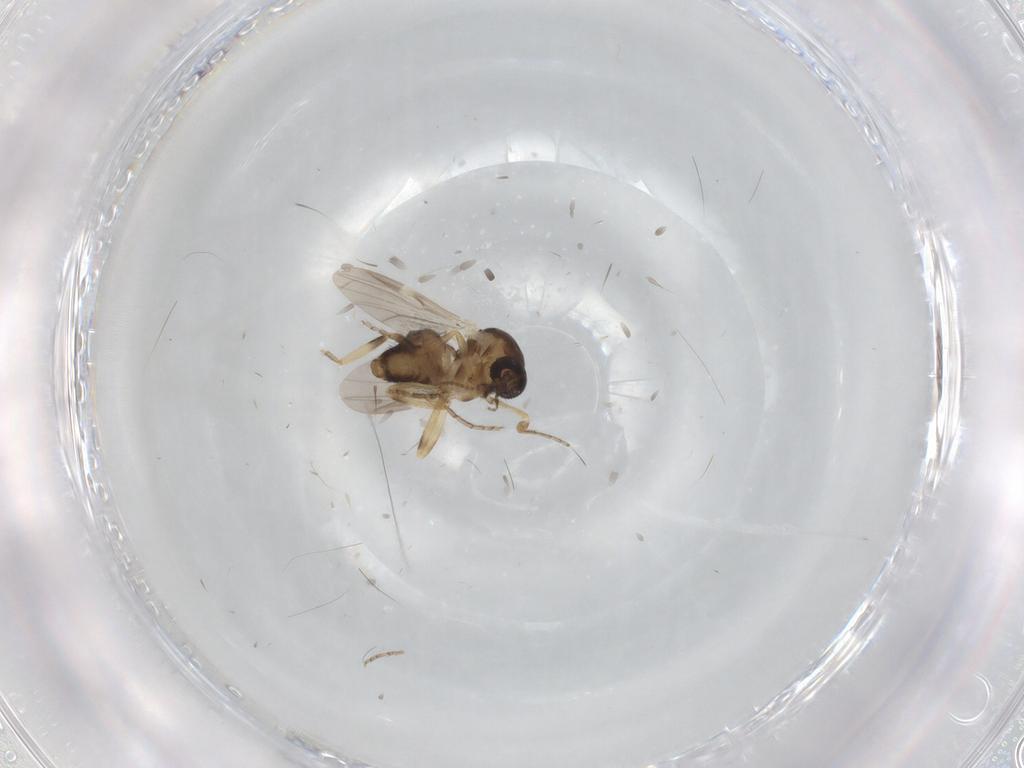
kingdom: Animalia
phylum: Arthropoda
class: Insecta
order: Diptera
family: Ceratopogonidae
